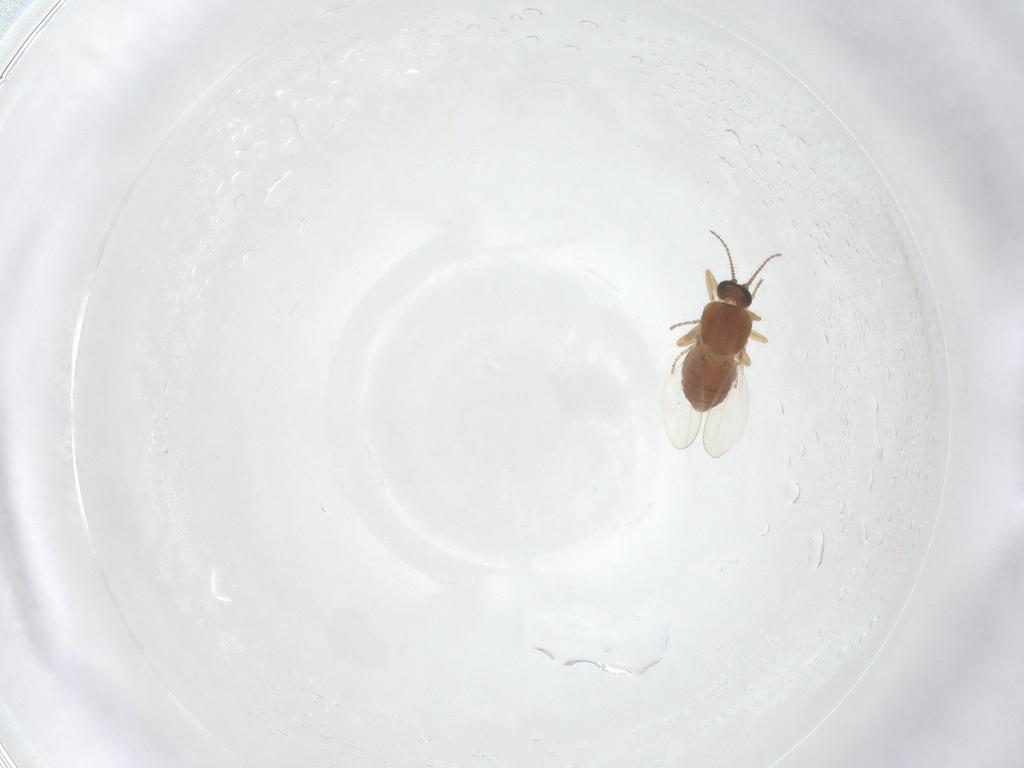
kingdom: Animalia
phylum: Arthropoda
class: Insecta
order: Diptera
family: Ceratopogonidae
